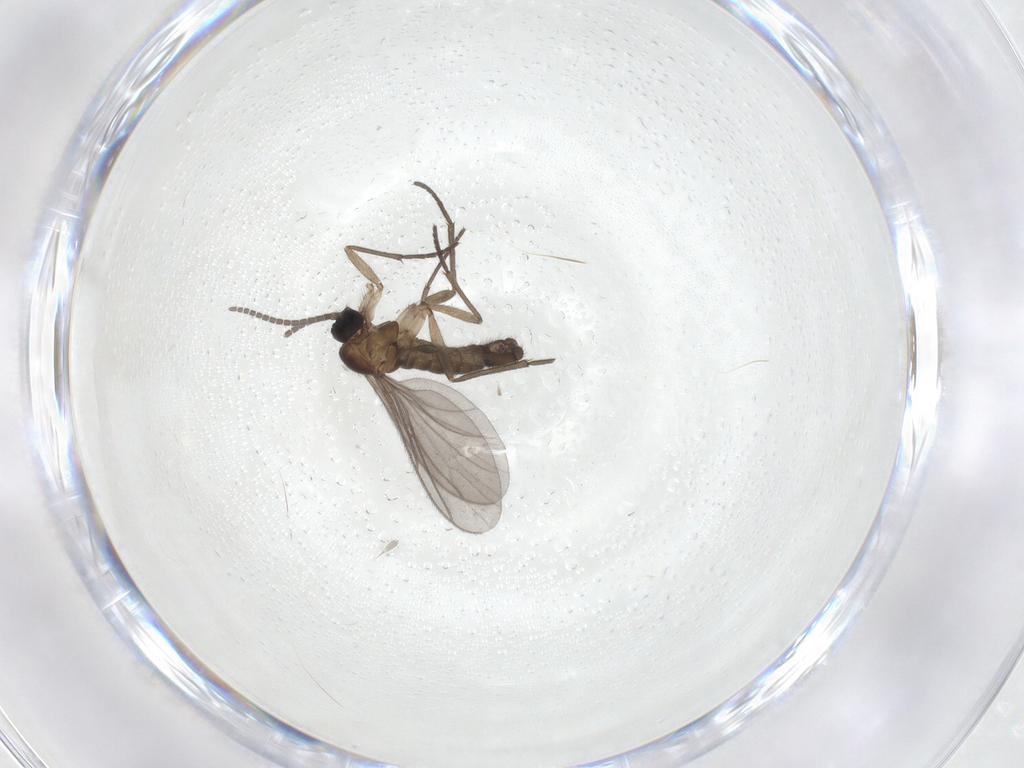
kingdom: Animalia
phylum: Arthropoda
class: Insecta
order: Diptera
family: Sciaridae
